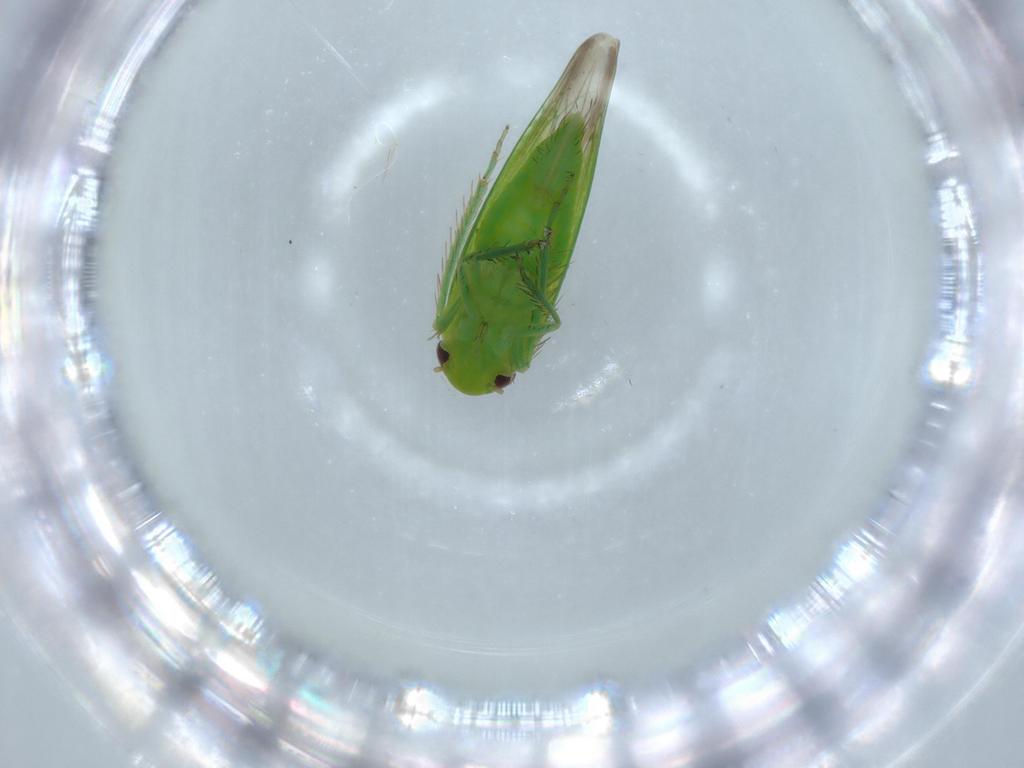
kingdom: Animalia
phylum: Arthropoda
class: Insecta
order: Hemiptera
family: Cicadellidae
